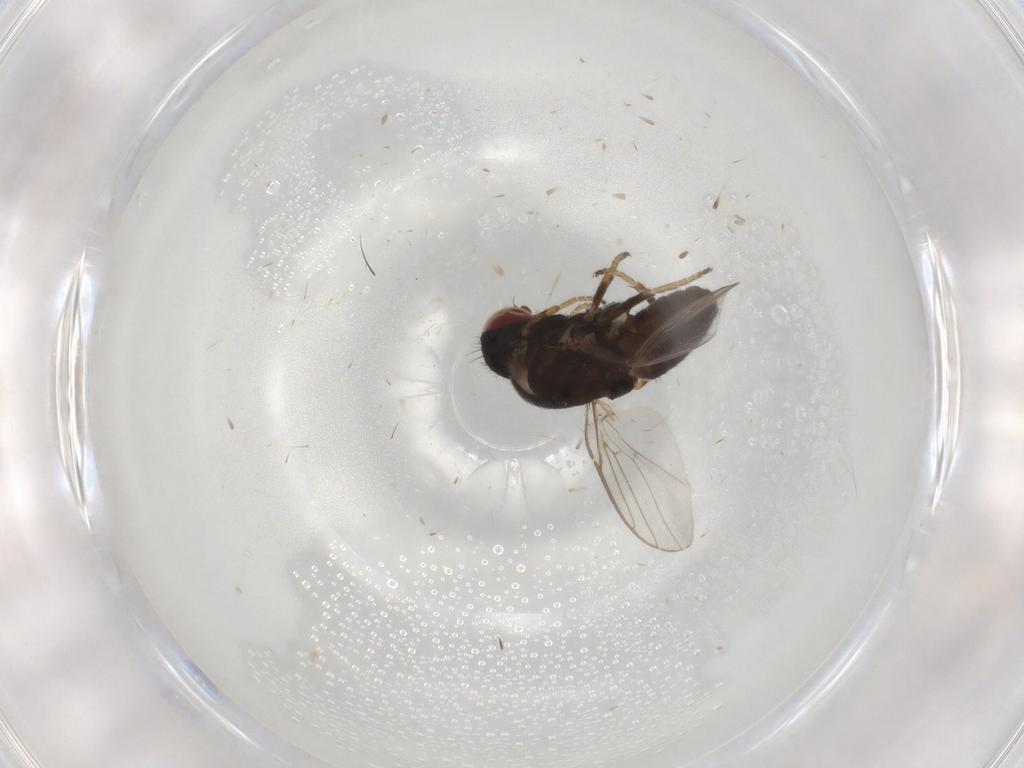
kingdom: Animalia
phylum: Arthropoda
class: Insecta
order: Diptera
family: Chloropidae
